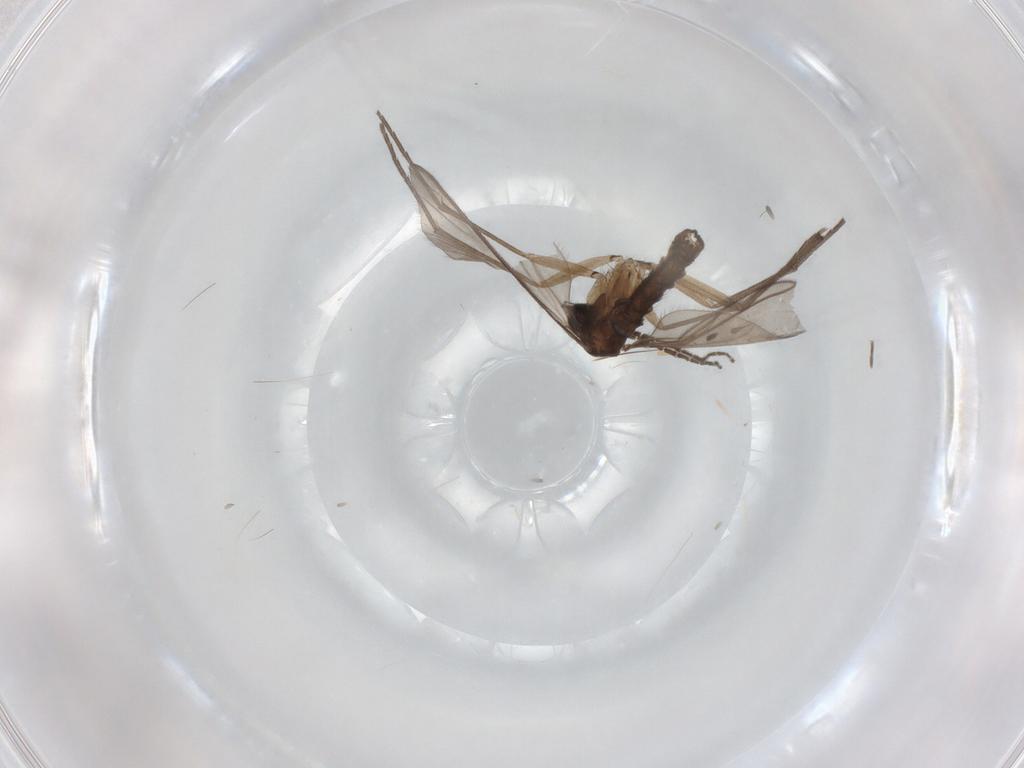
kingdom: Animalia
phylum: Arthropoda
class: Insecta
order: Diptera
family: Sciaridae
